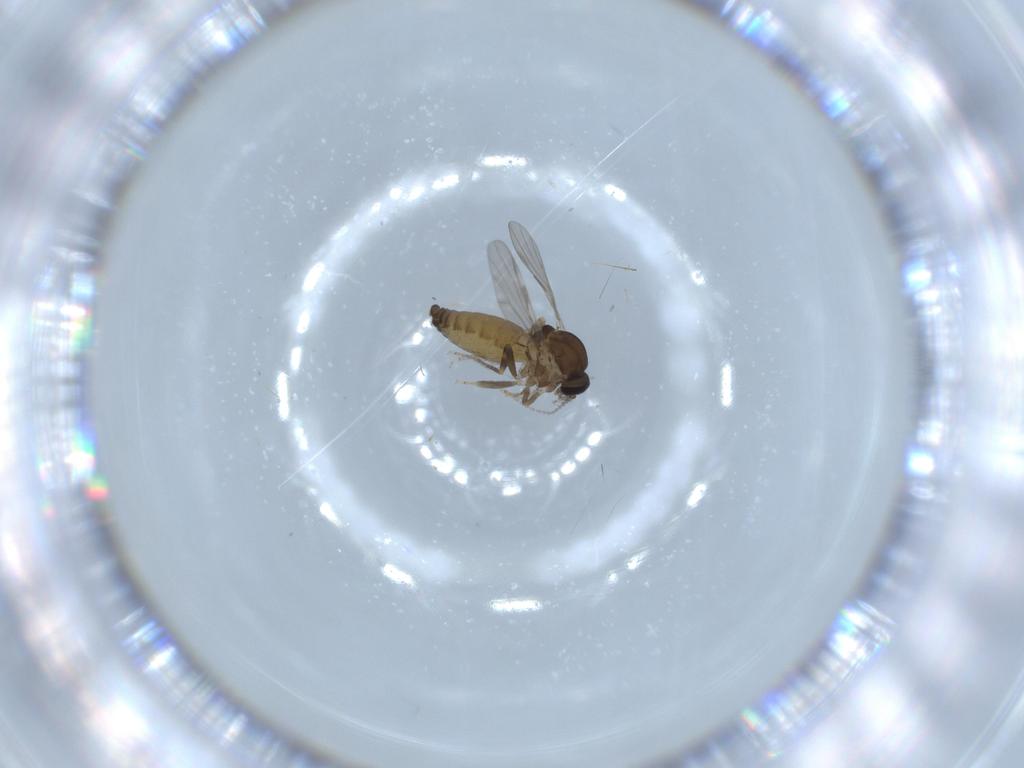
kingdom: Animalia
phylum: Arthropoda
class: Insecta
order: Diptera
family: Ceratopogonidae
